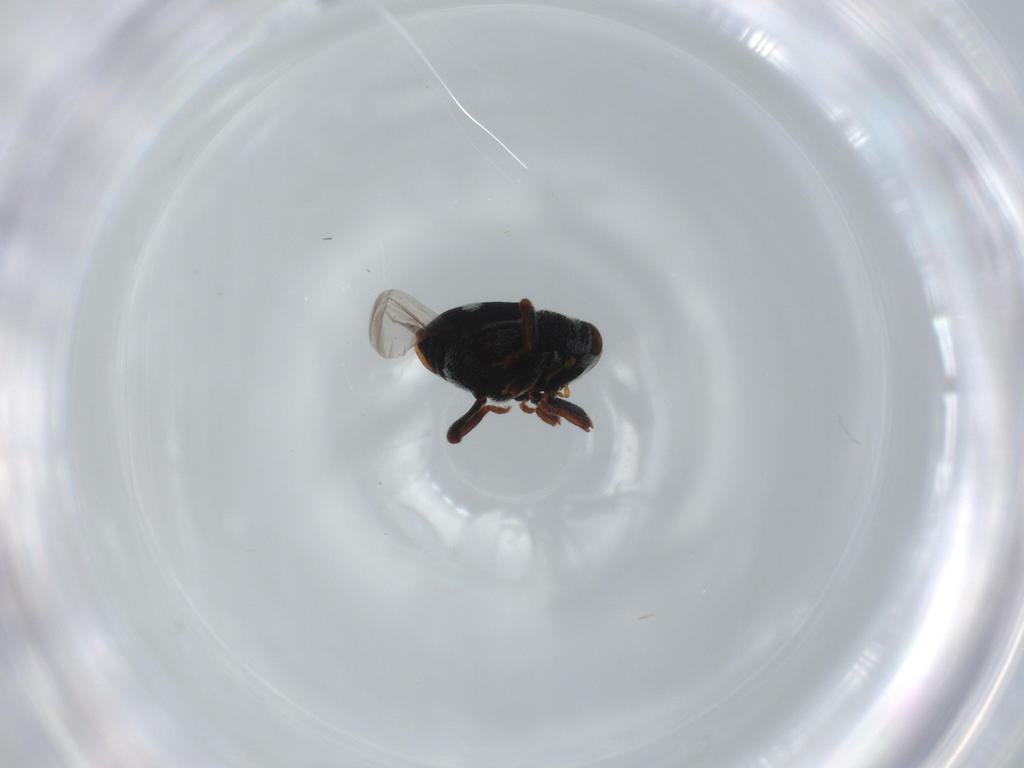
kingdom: Animalia
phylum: Arthropoda
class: Insecta
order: Coleoptera
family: Curculionidae
